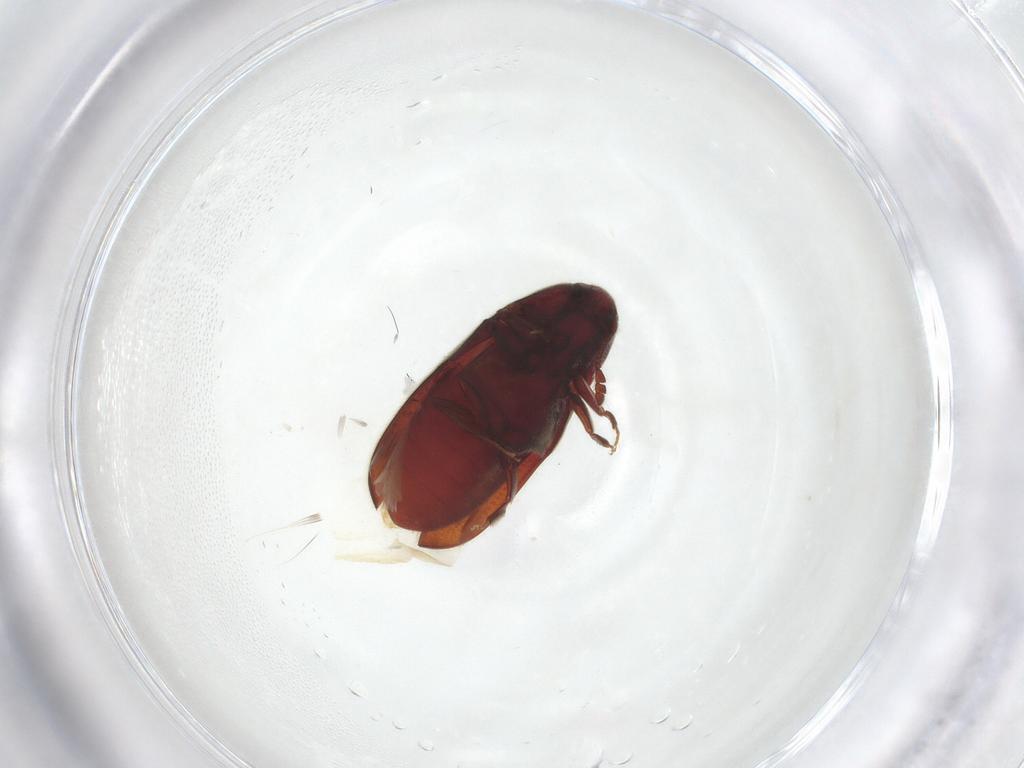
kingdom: Animalia
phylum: Arthropoda
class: Insecta
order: Coleoptera
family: Throscidae
